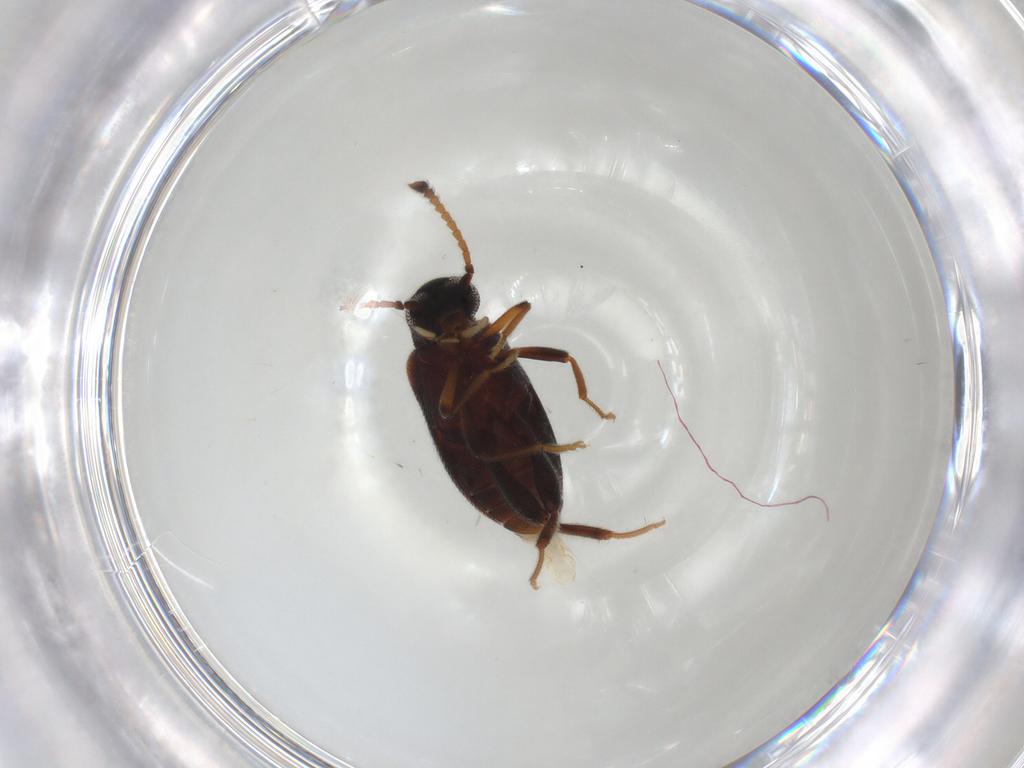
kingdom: Animalia
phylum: Arthropoda
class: Insecta
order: Coleoptera
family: Aderidae
